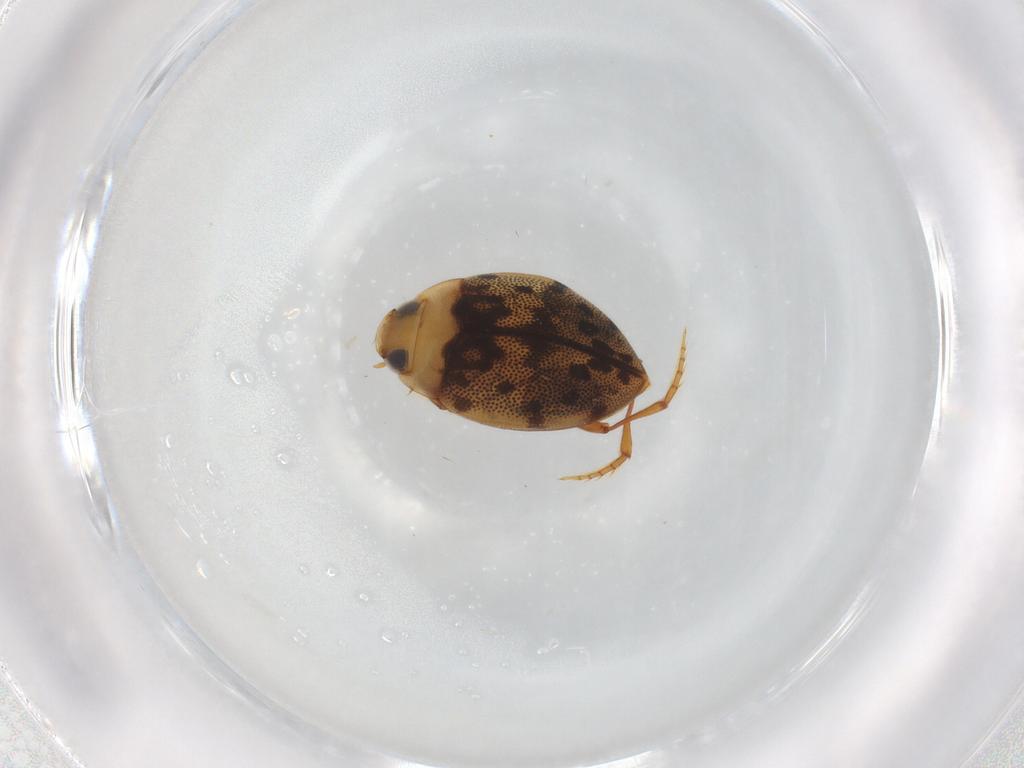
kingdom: Animalia
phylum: Arthropoda
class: Insecta
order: Coleoptera
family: Dytiscidae
